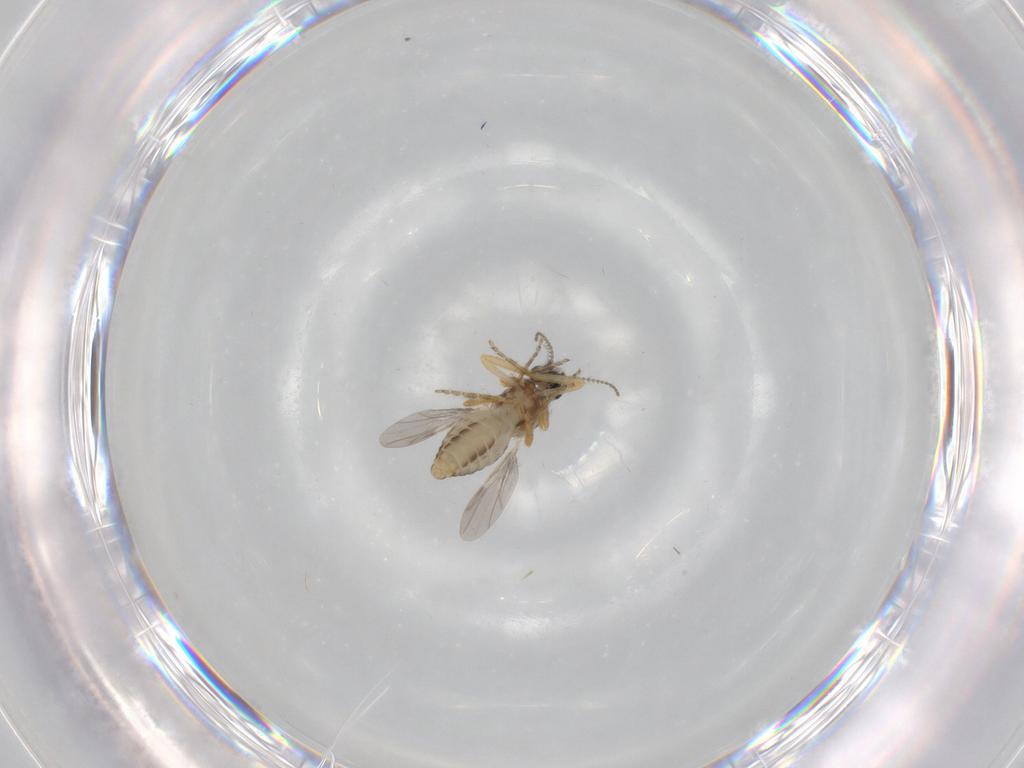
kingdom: Animalia
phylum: Arthropoda
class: Insecta
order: Diptera
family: Ceratopogonidae
